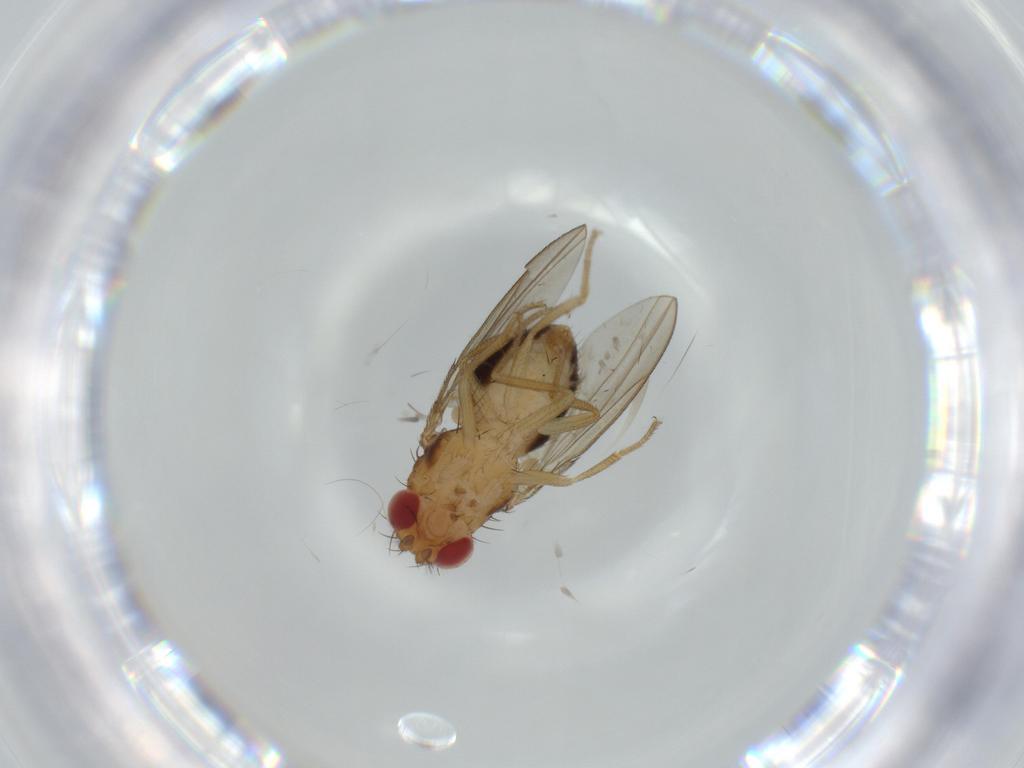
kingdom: Animalia
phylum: Arthropoda
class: Insecta
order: Diptera
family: Drosophilidae
